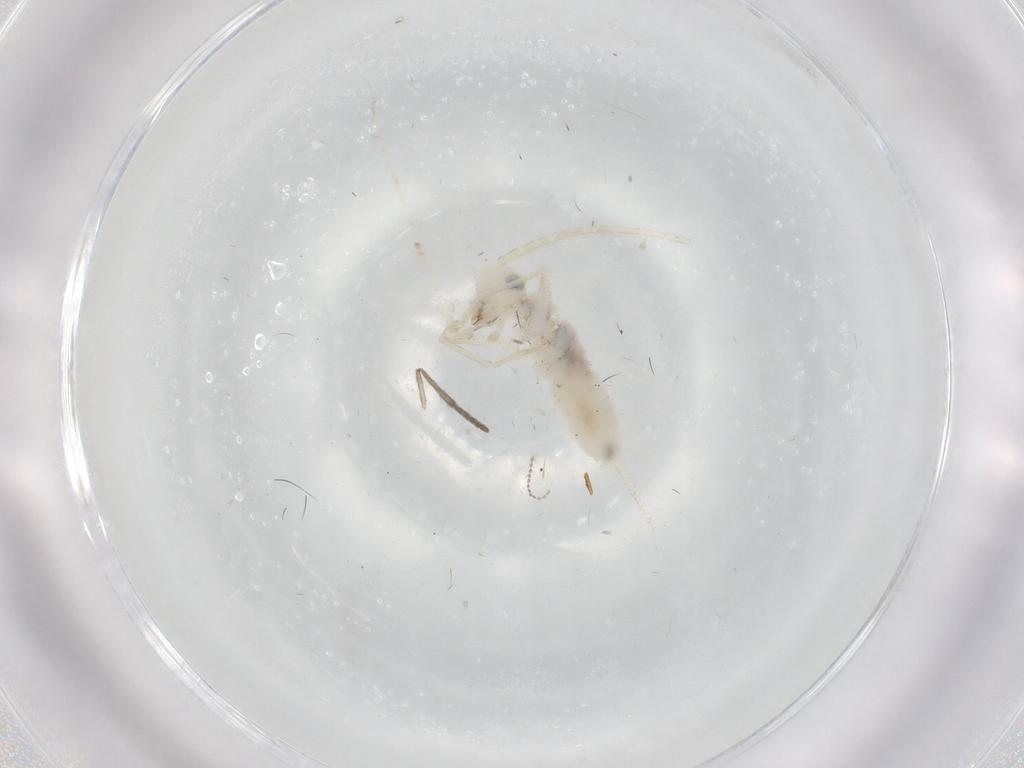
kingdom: Animalia
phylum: Arthropoda
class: Insecta
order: Orthoptera
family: Trigonidiidae
